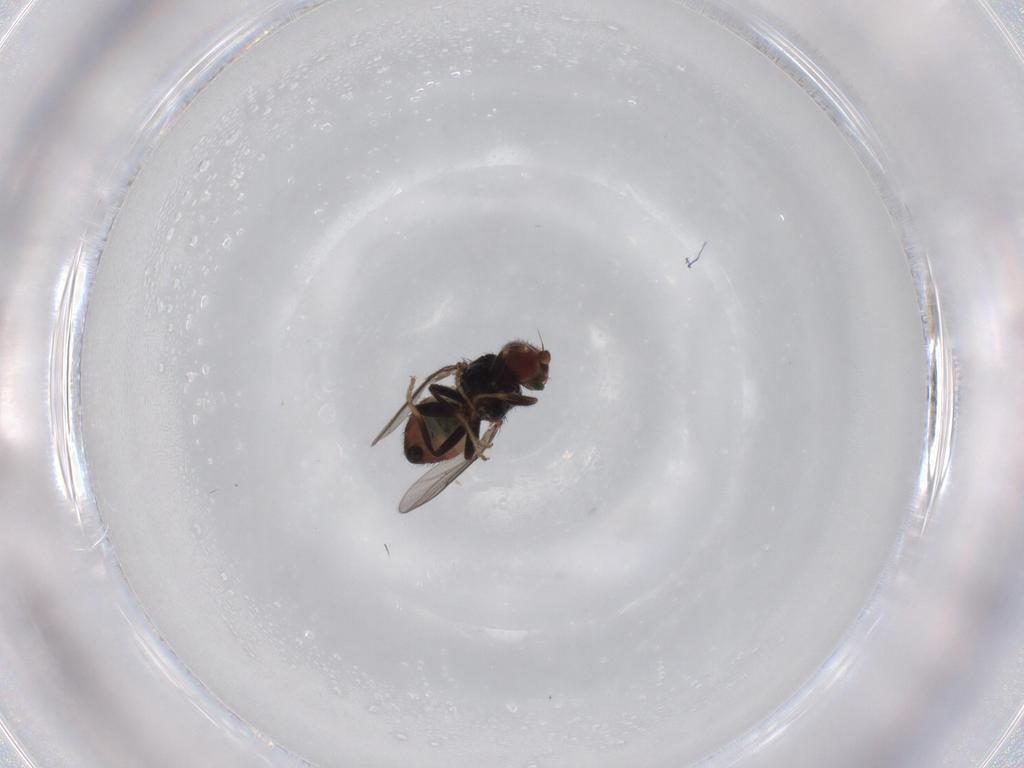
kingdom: Animalia
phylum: Arthropoda
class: Insecta
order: Diptera
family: Chloropidae
